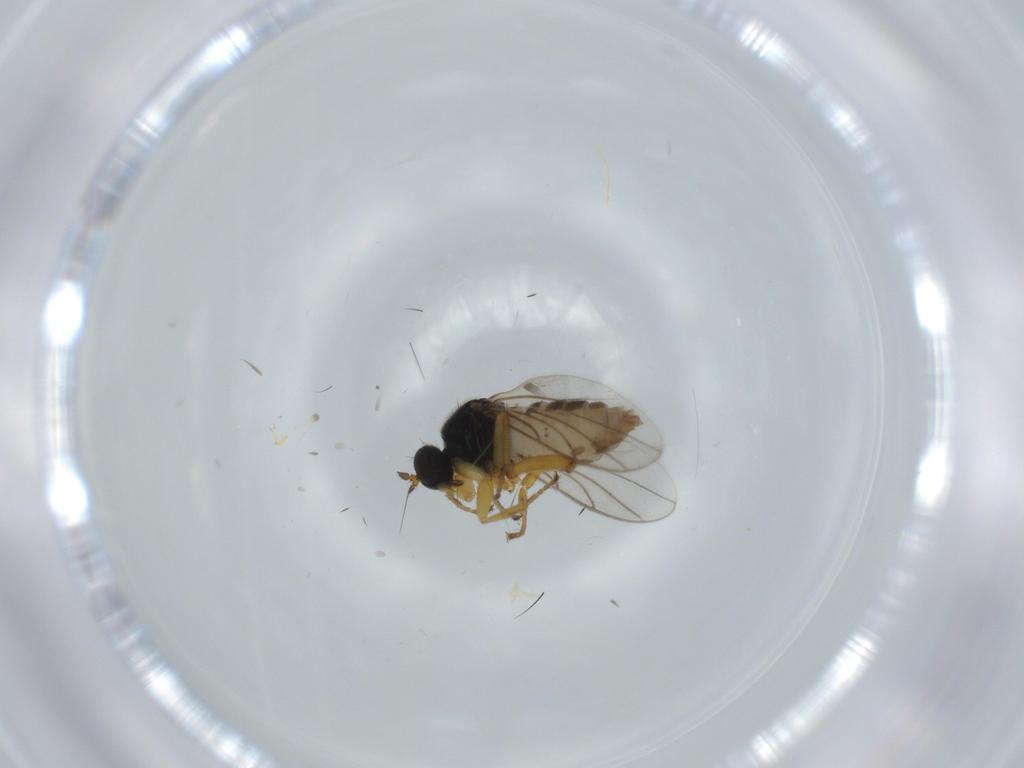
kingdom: Animalia
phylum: Arthropoda
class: Insecta
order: Diptera
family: Hybotidae
